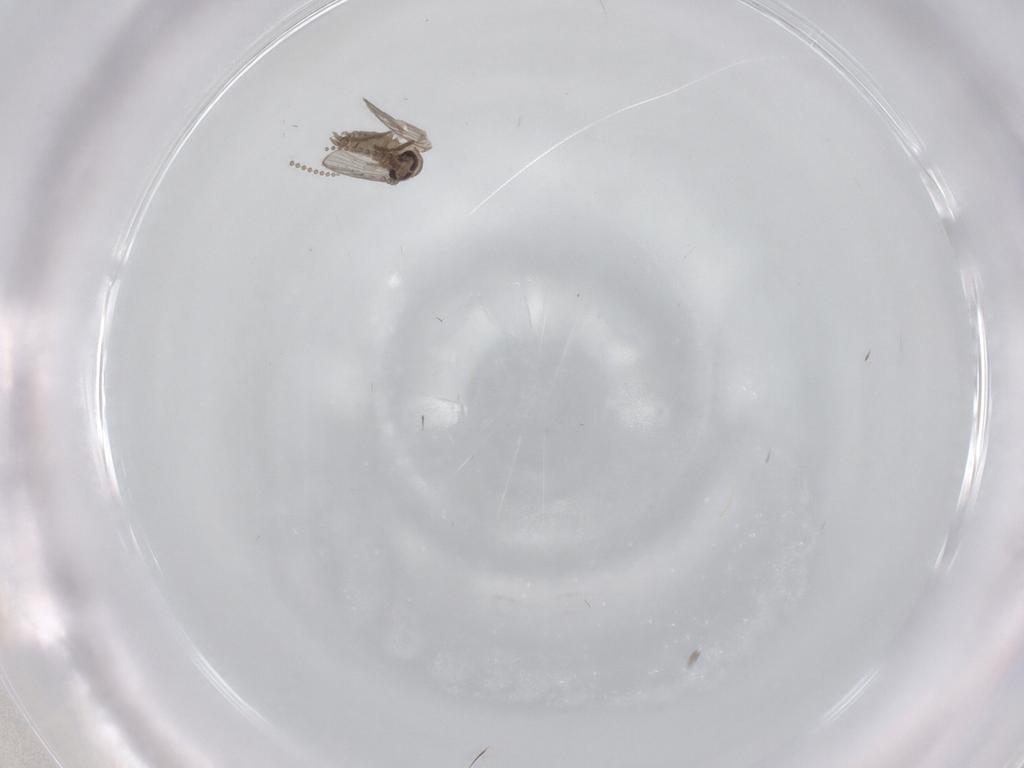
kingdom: Animalia
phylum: Arthropoda
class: Insecta
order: Diptera
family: Psychodidae
